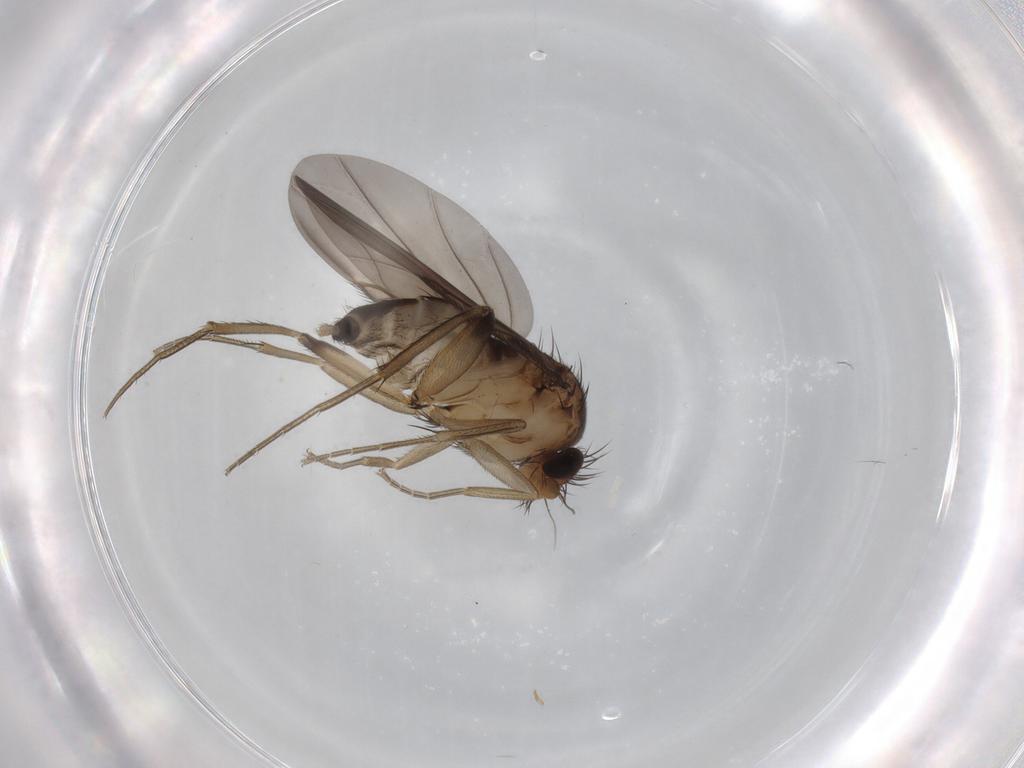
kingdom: Animalia
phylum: Arthropoda
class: Insecta
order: Diptera
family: Phoridae
